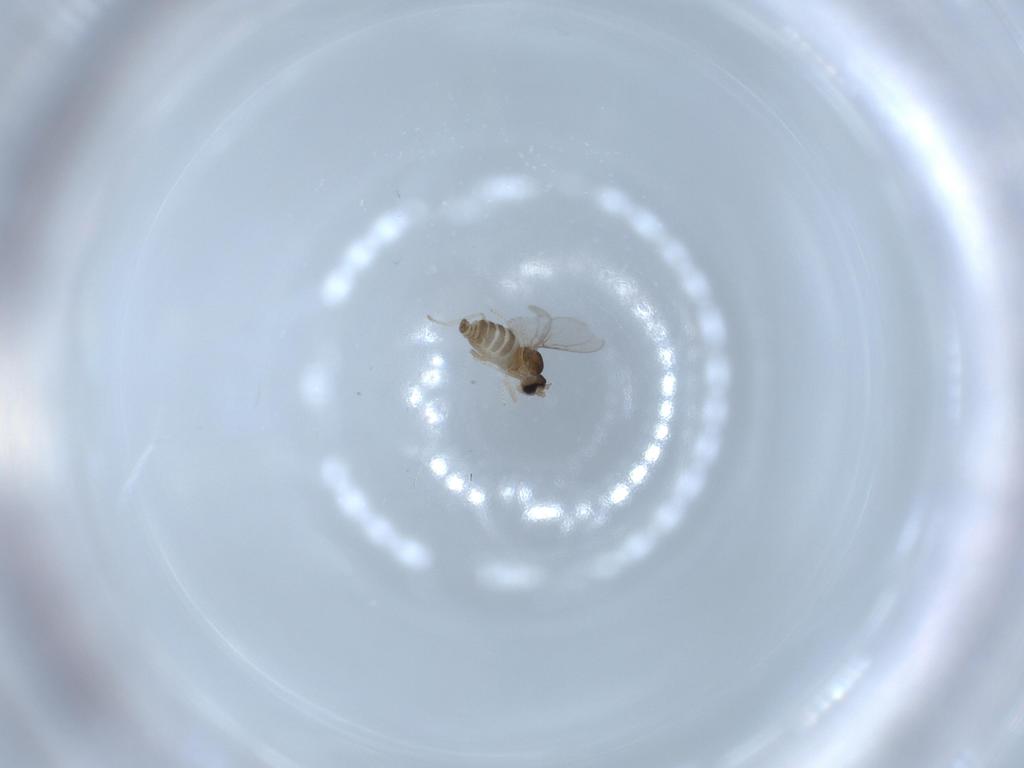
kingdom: Animalia
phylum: Arthropoda
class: Insecta
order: Diptera
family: Cecidomyiidae
